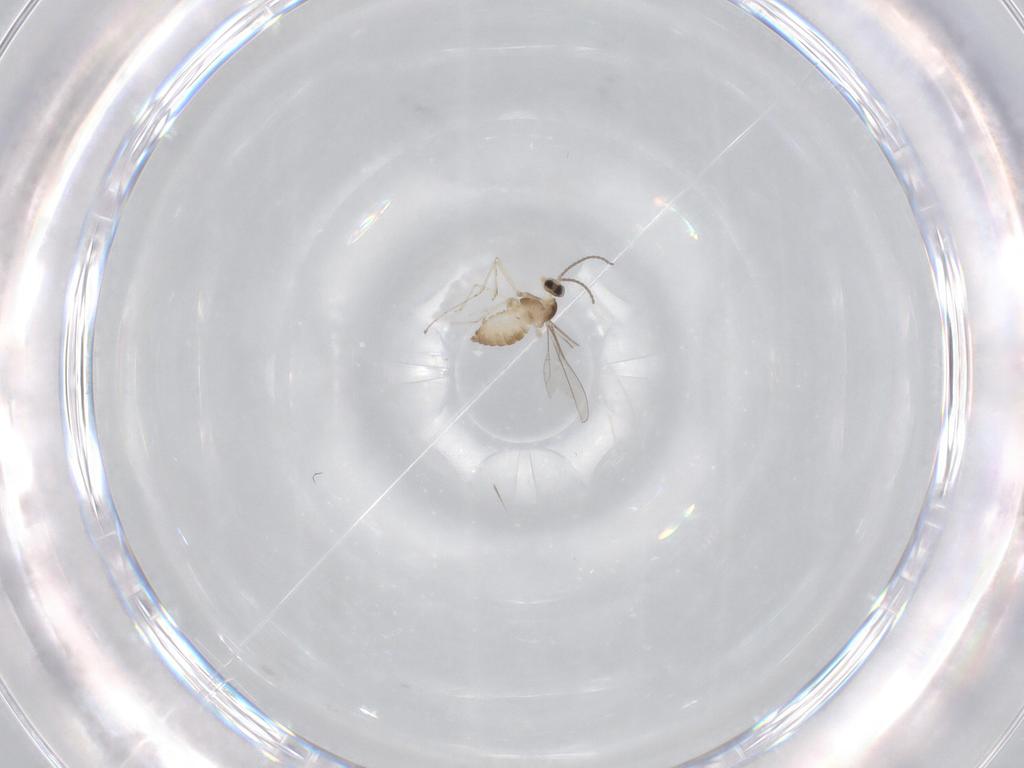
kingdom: Animalia
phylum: Arthropoda
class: Insecta
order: Diptera
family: Cecidomyiidae
